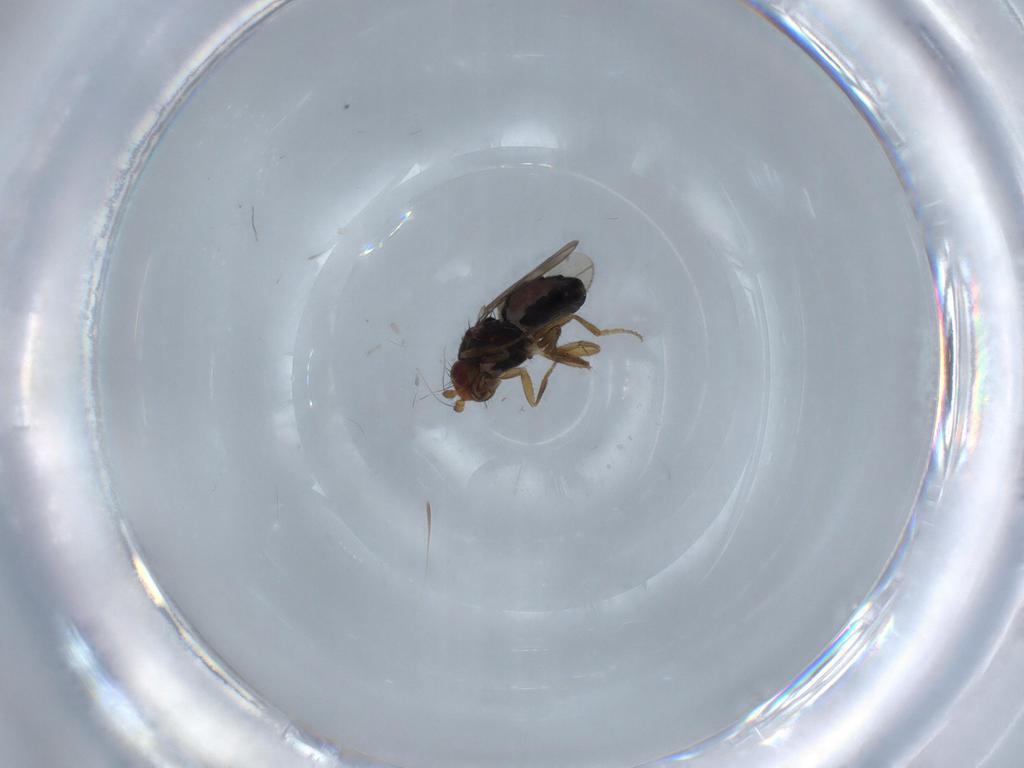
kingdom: Animalia
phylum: Arthropoda
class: Insecta
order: Diptera
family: Sphaeroceridae
